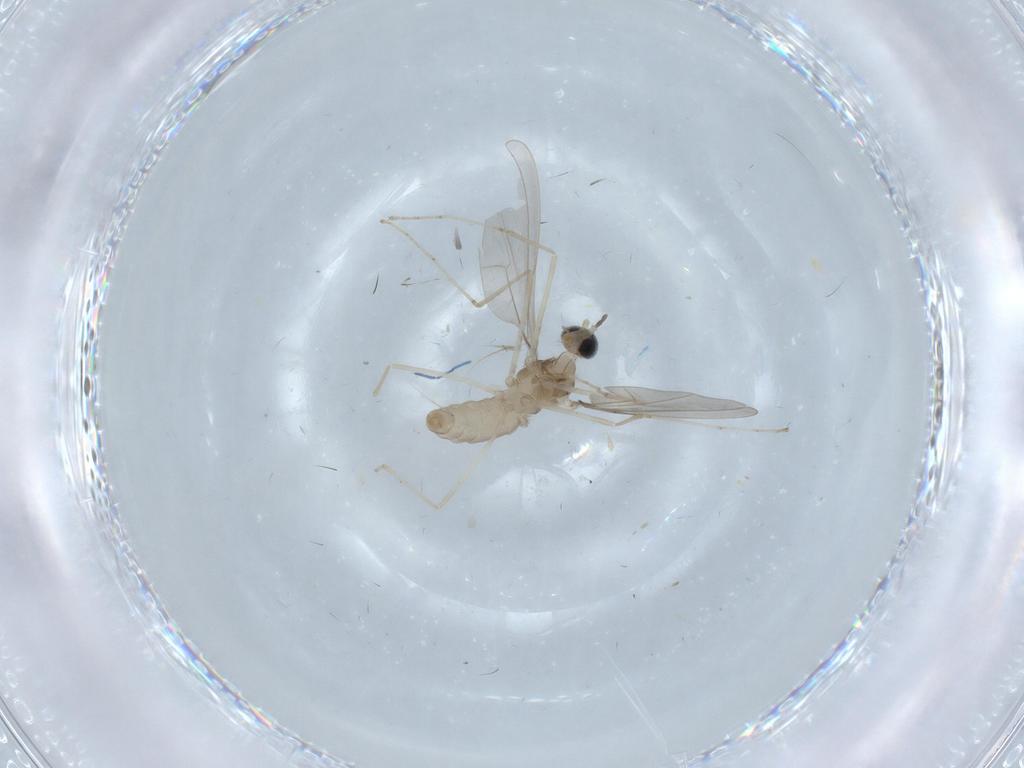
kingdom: Animalia
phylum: Arthropoda
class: Insecta
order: Diptera
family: Cecidomyiidae
